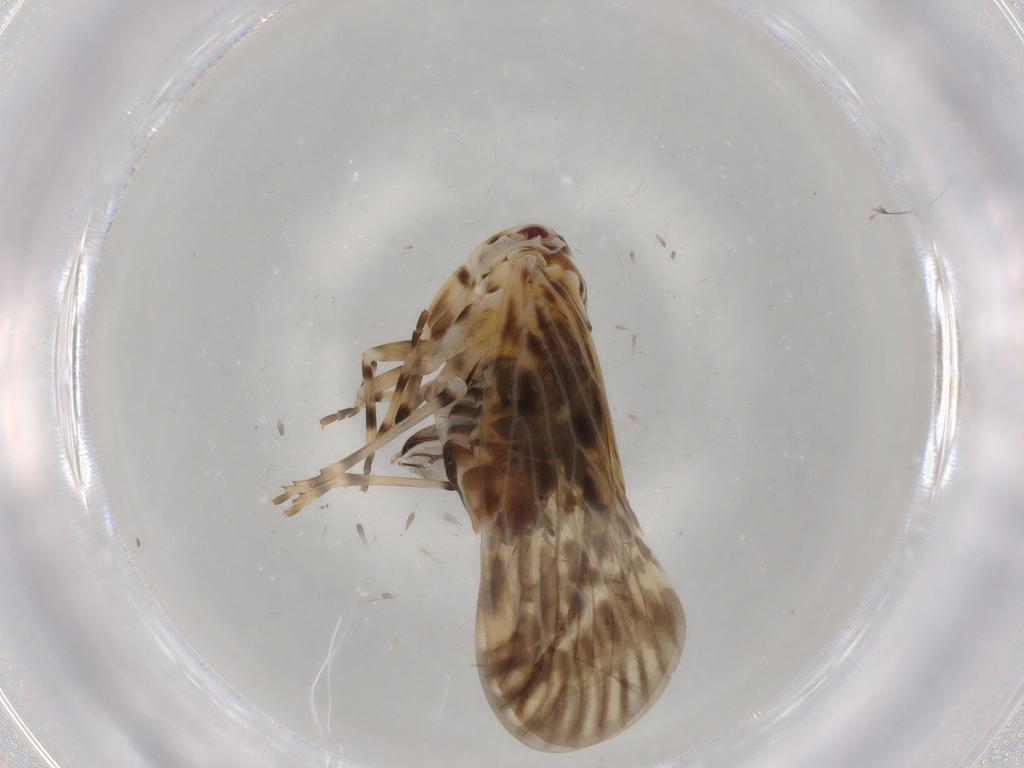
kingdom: Animalia
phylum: Arthropoda
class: Insecta
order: Hemiptera
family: Derbidae
